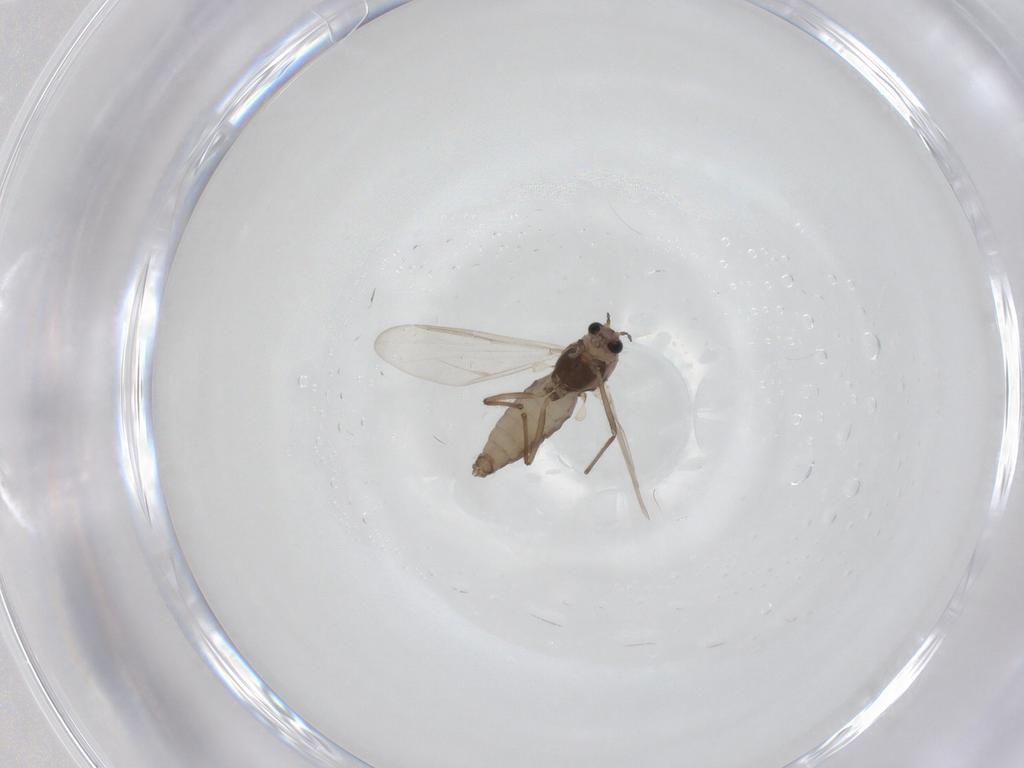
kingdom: Animalia
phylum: Arthropoda
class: Insecta
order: Diptera
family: Chironomidae
